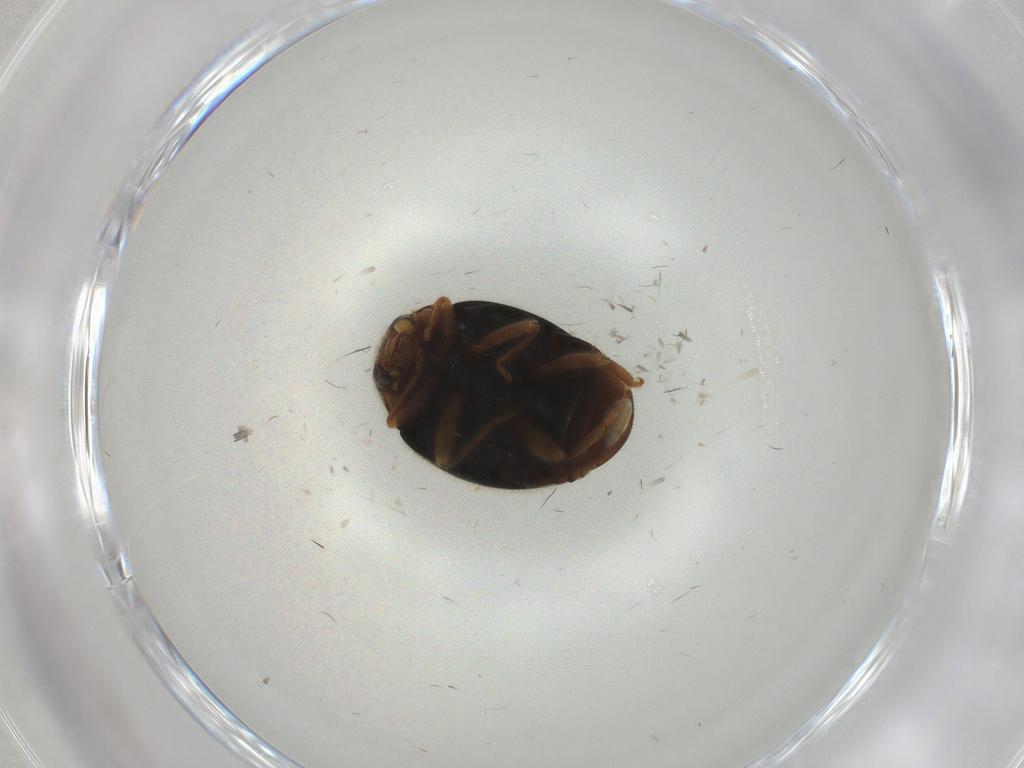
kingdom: Animalia
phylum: Arthropoda
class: Insecta
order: Coleoptera
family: Coccinellidae
